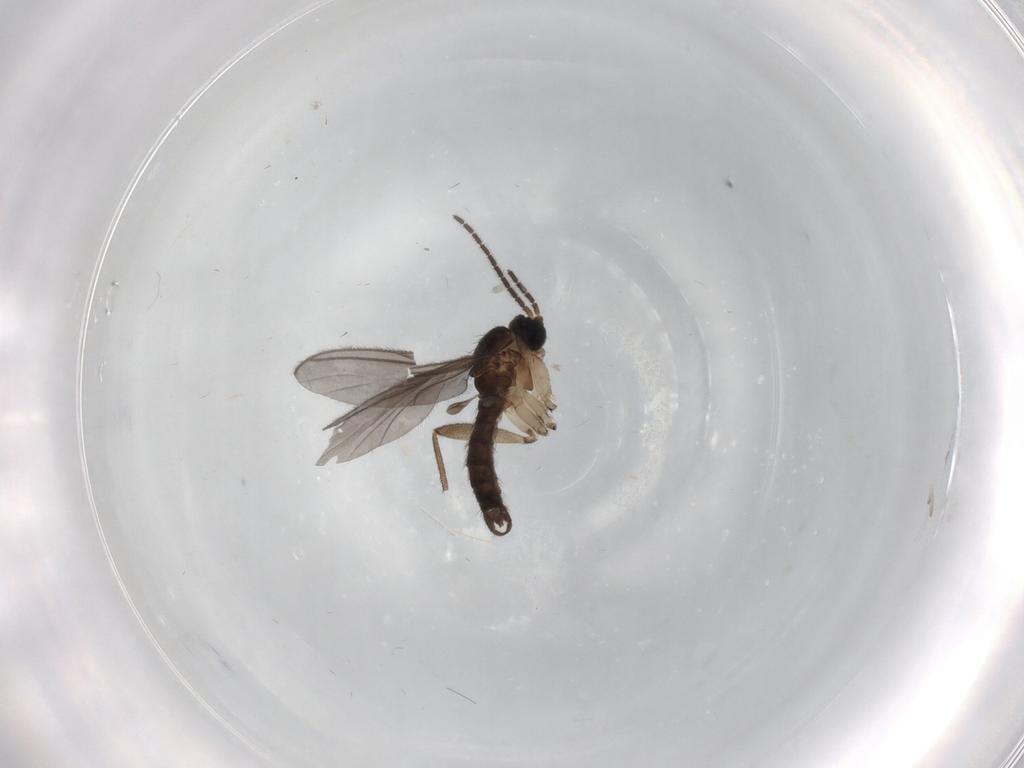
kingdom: Animalia
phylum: Arthropoda
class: Insecta
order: Diptera
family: Sciaridae
